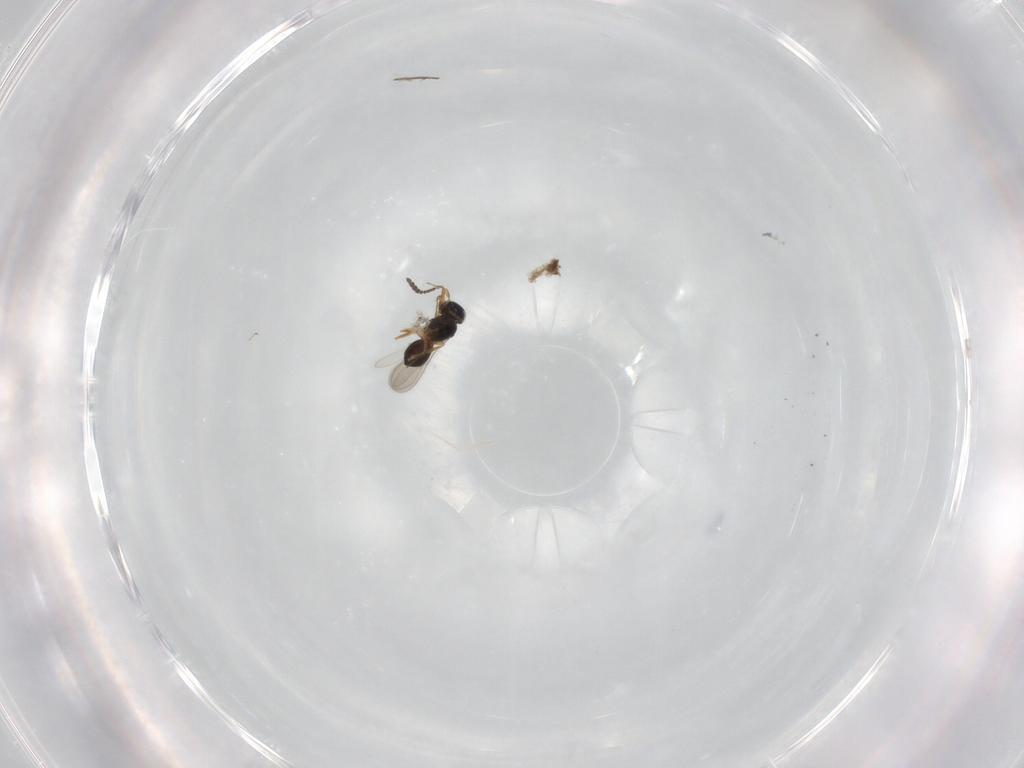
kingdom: Animalia
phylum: Arthropoda
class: Insecta
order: Hymenoptera
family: Scelionidae
